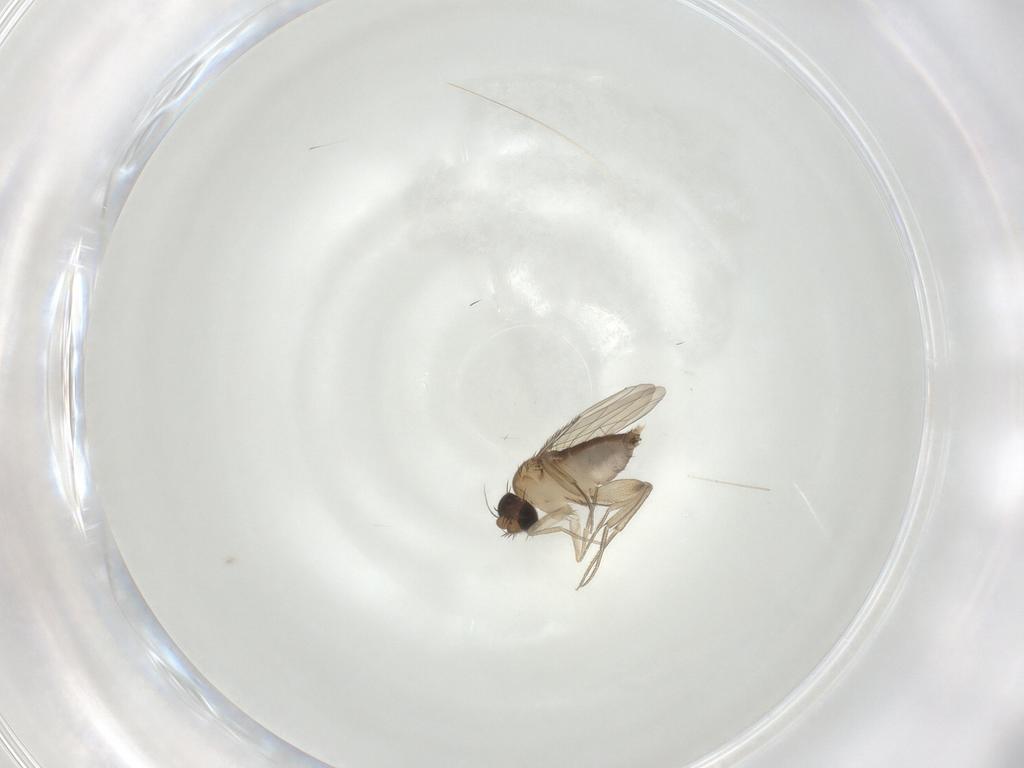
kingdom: Animalia
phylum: Arthropoda
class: Insecta
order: Diptera
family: Phoridae
